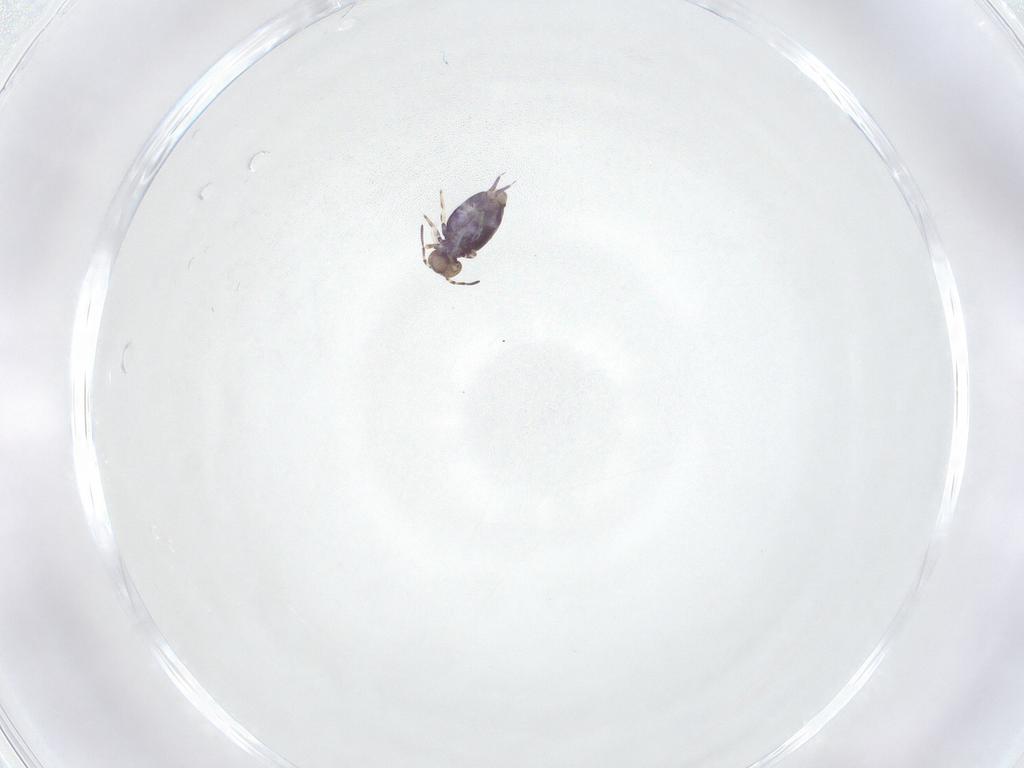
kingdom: Animalia
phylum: Arthropoda
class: Collembola
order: Symphypleona
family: Sminthuridae
